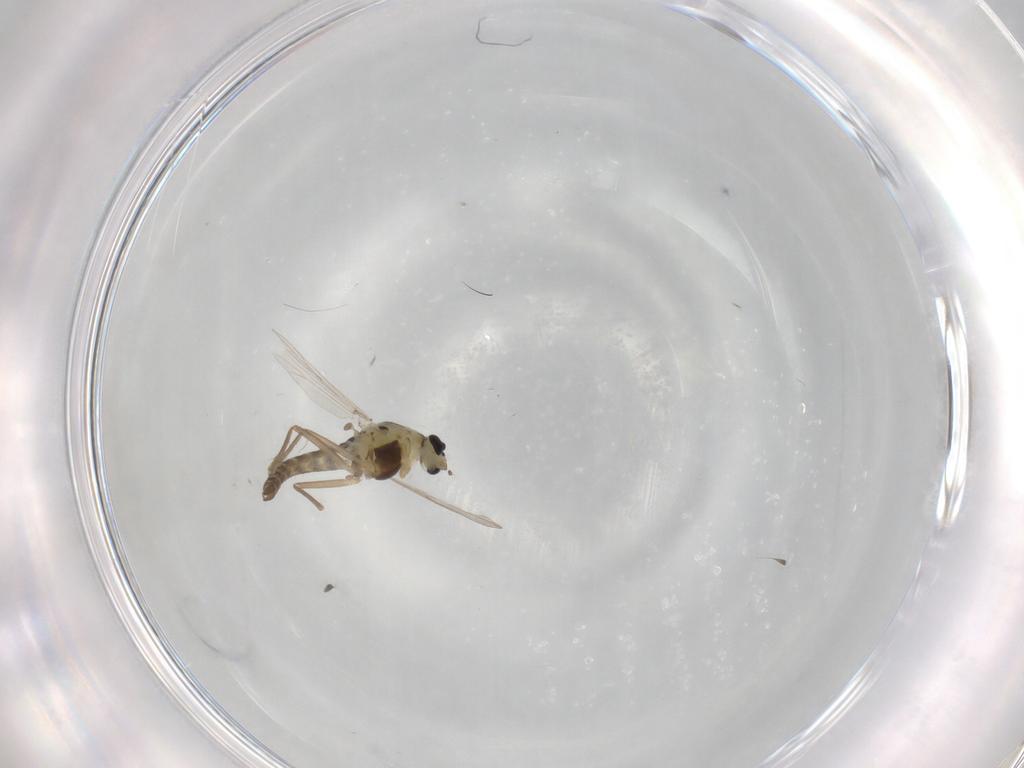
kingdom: Animalia
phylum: Arthropoda
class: Insecta
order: Diptera
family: Chironomidae
